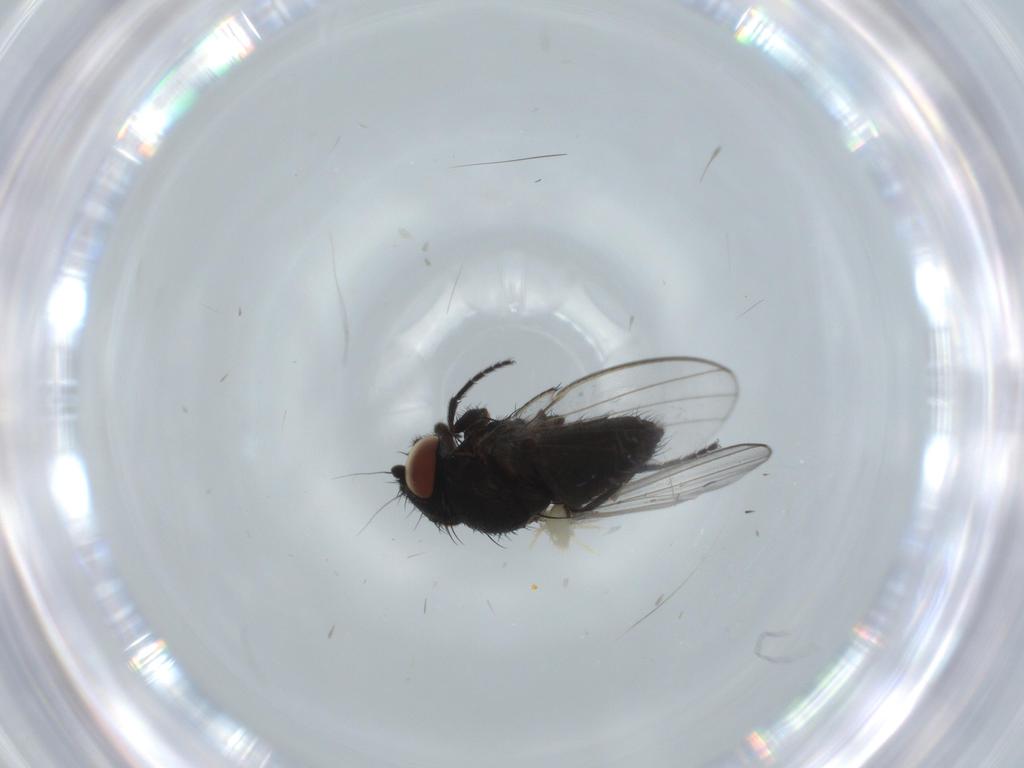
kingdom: Animalia
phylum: Arthropoda
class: Insecta
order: Diptera
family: Milichiidae
